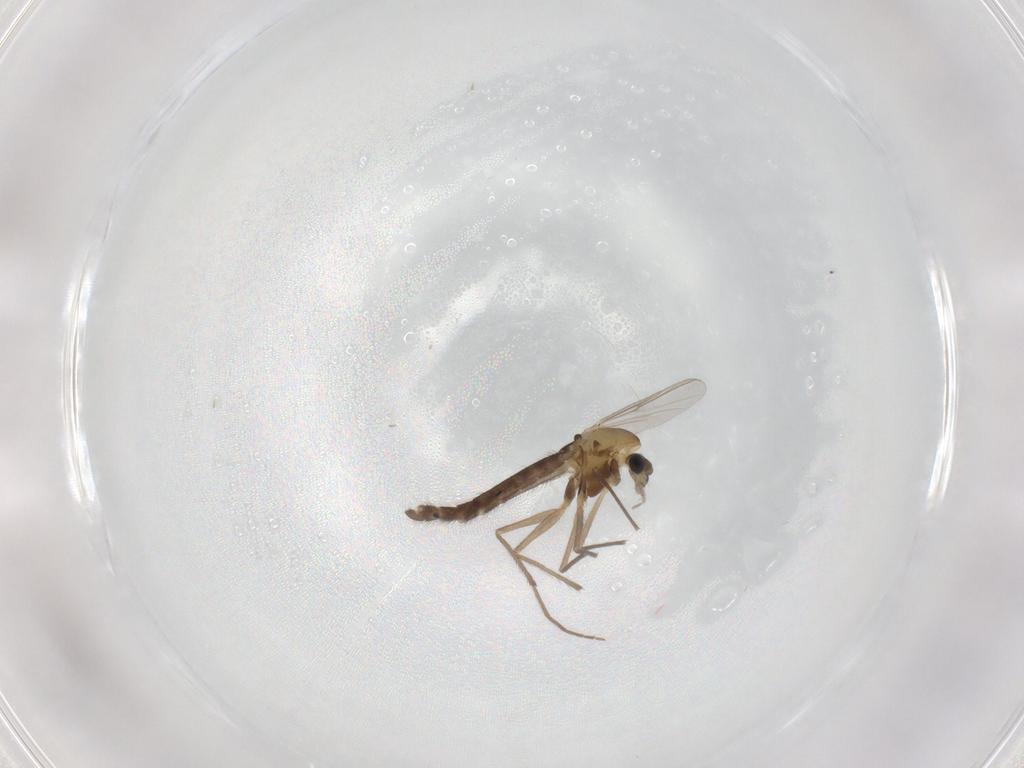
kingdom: Animalia
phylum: Arthropoda
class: Insecta
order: Diptera
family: Chironomidae
